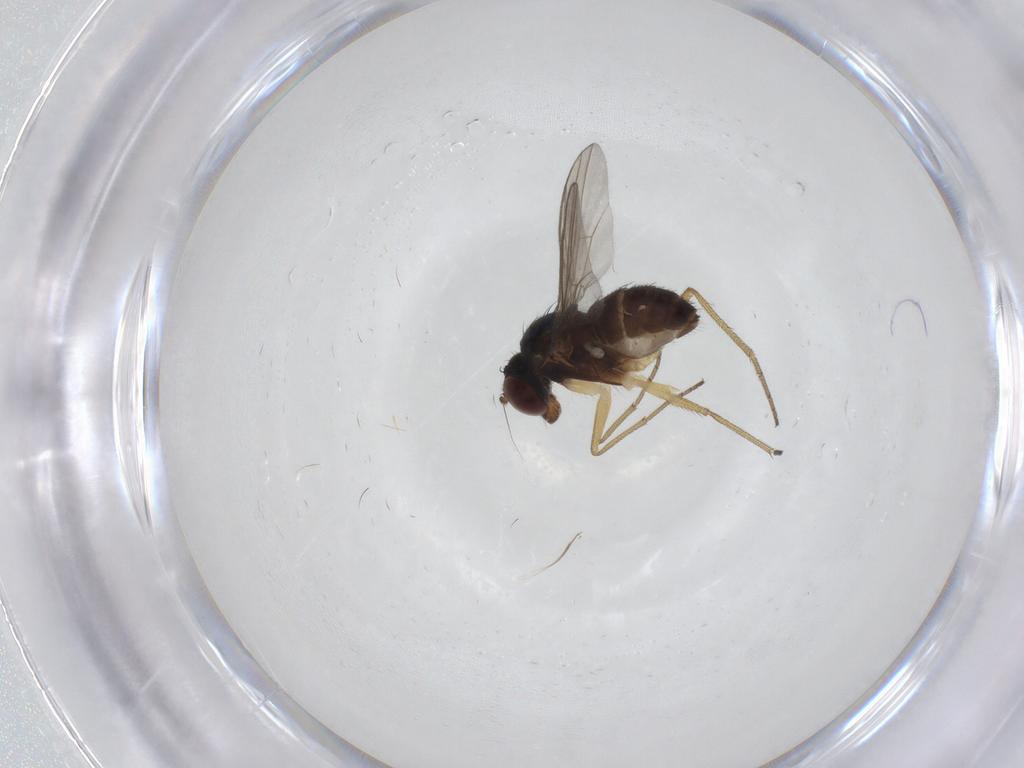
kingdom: Animalia
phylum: Arthropoda
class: Insecta
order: Diptera
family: Dolichopodidae
